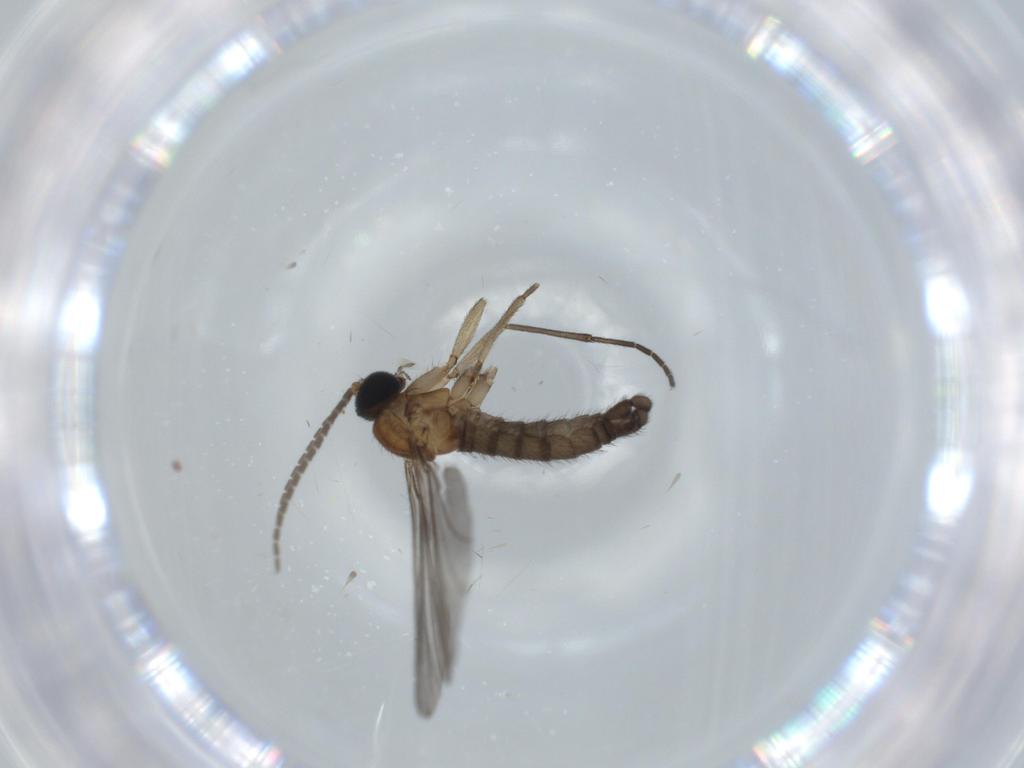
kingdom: Animalia
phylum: Arthropoda
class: Insecta
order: Diptera
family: Sciaridae
